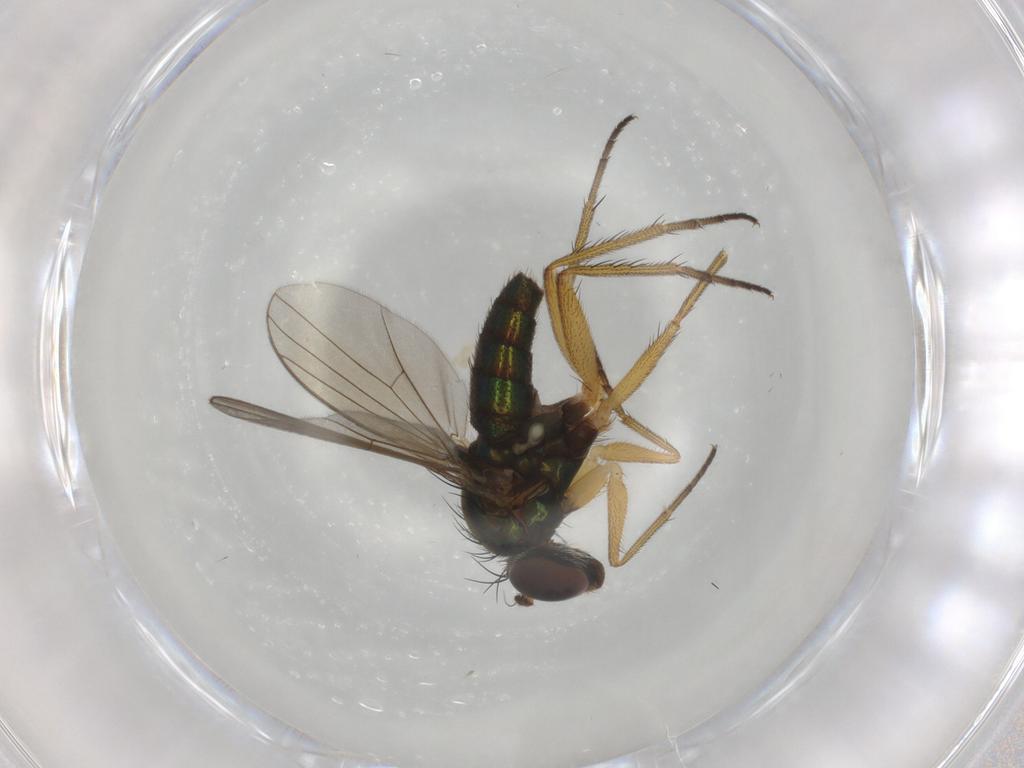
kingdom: Animalia
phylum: Arthropoda
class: Insecta
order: Diptera
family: Dolichopodidae
